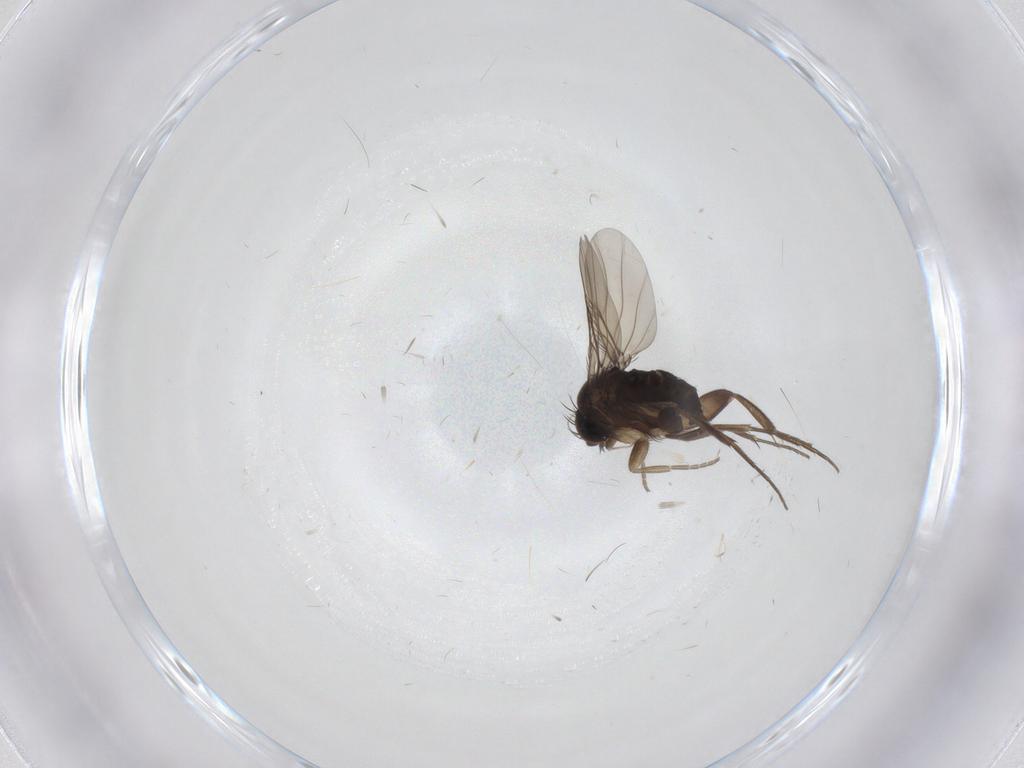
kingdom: Animalia
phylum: Arthropoda
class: Insecta
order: Diptera
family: Phoridae
